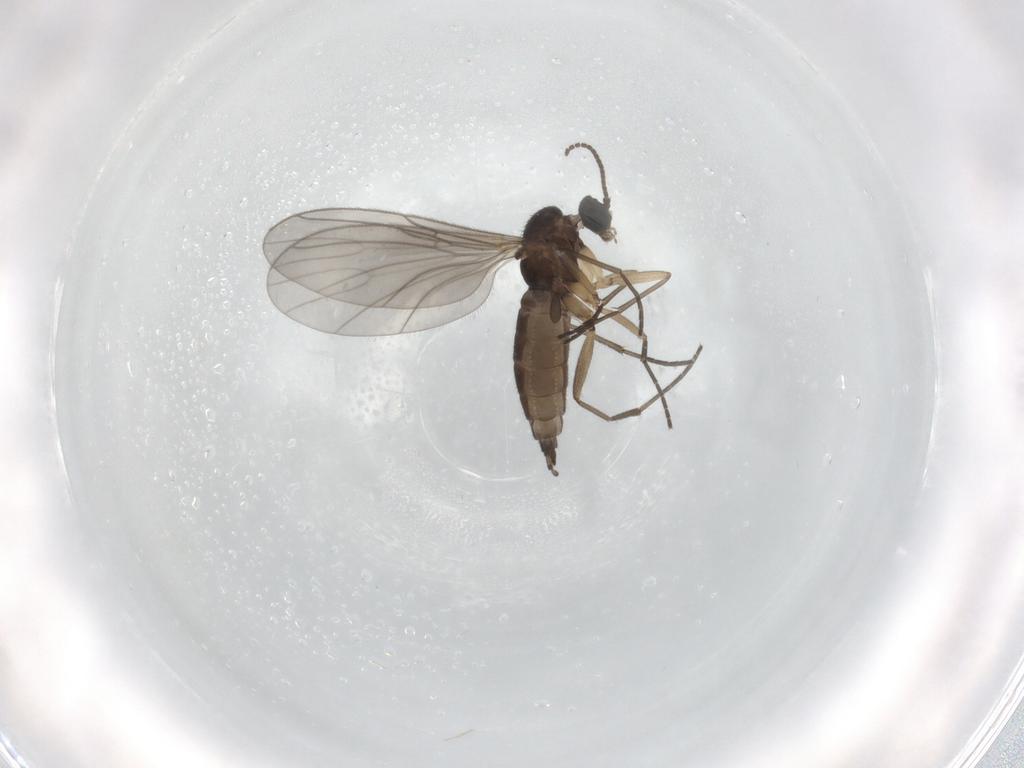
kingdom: Animalia
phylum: Arthropoda
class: Insecta
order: Diptera
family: Sciaridae
